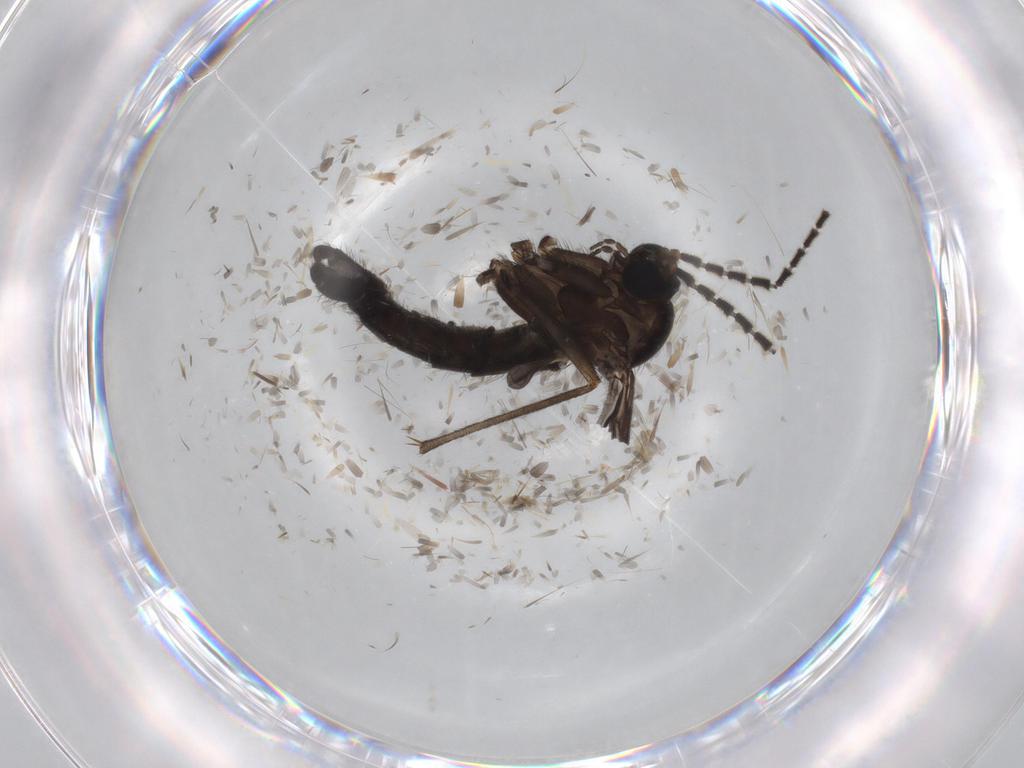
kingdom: Animalia
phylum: Arthropoda
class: Insecta
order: Diptera
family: Sciaridae
